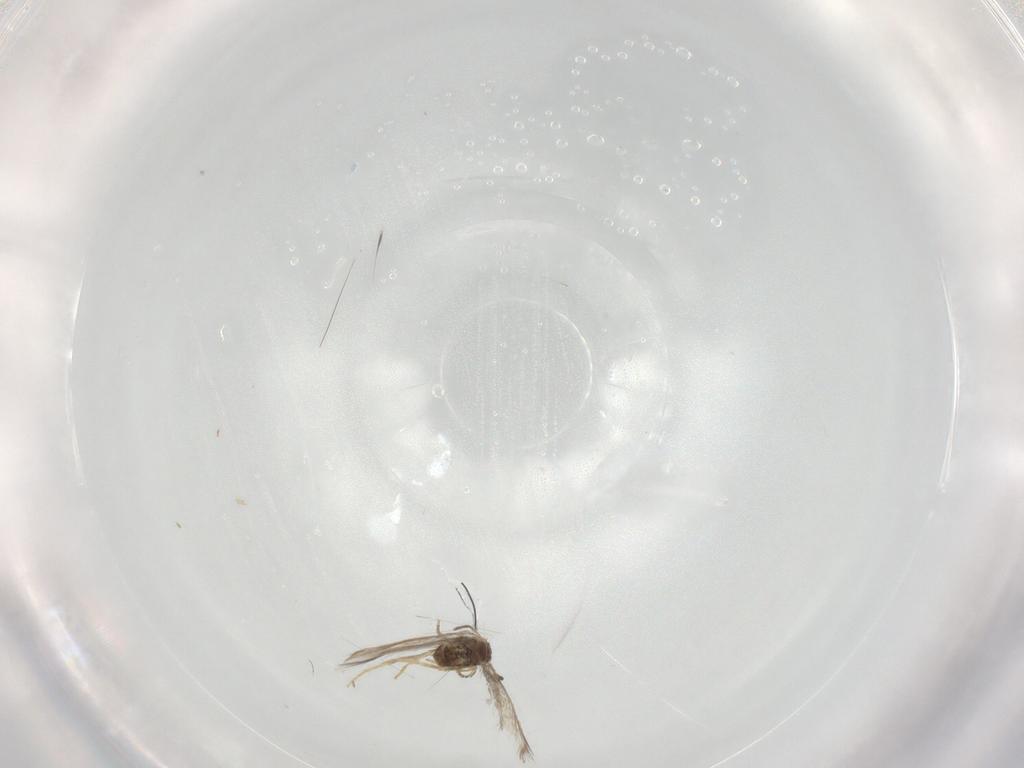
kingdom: Animalia
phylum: Arthropoda
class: Insecta
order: Lepidoptera
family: Nepticulidae
